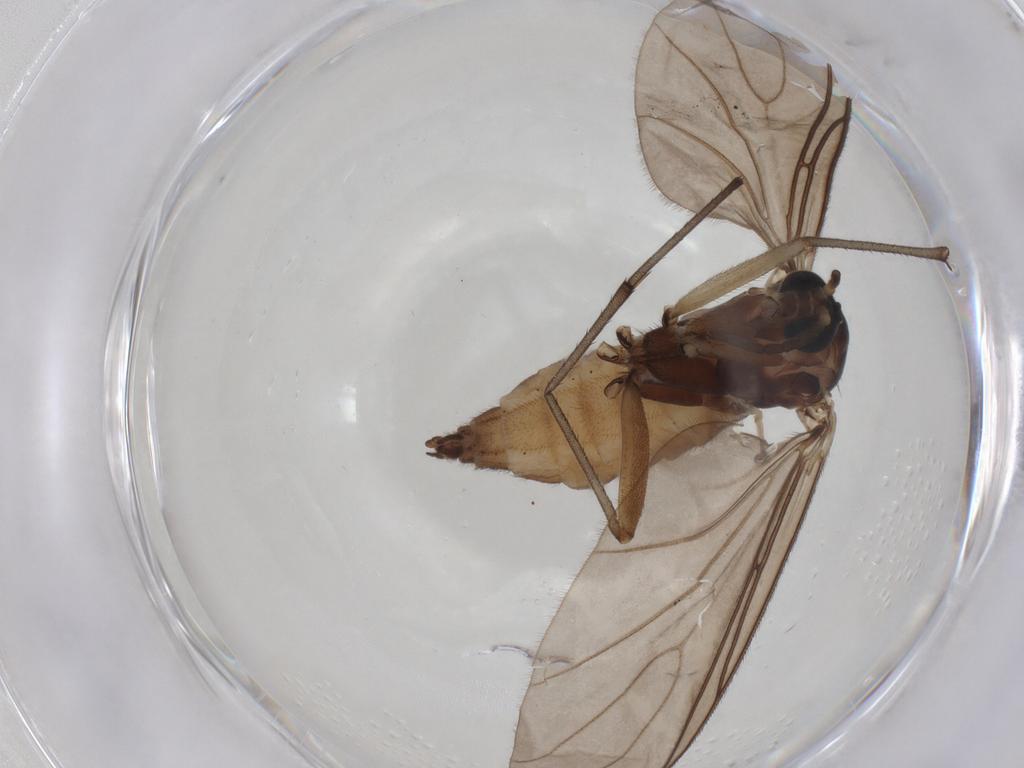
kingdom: Animalia
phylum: Arthropoda
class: Insecta
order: Diptera
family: Sciaridae
